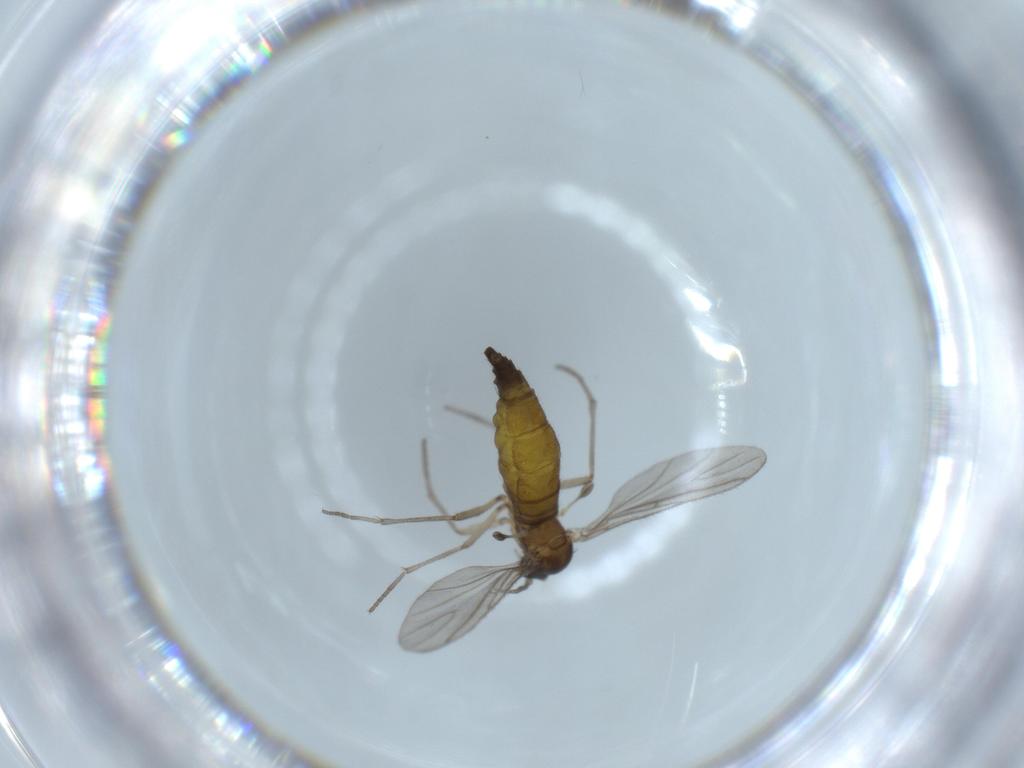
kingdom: Animalia
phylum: Arthropoda
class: Insecta
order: Diptera
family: Sciaridae
